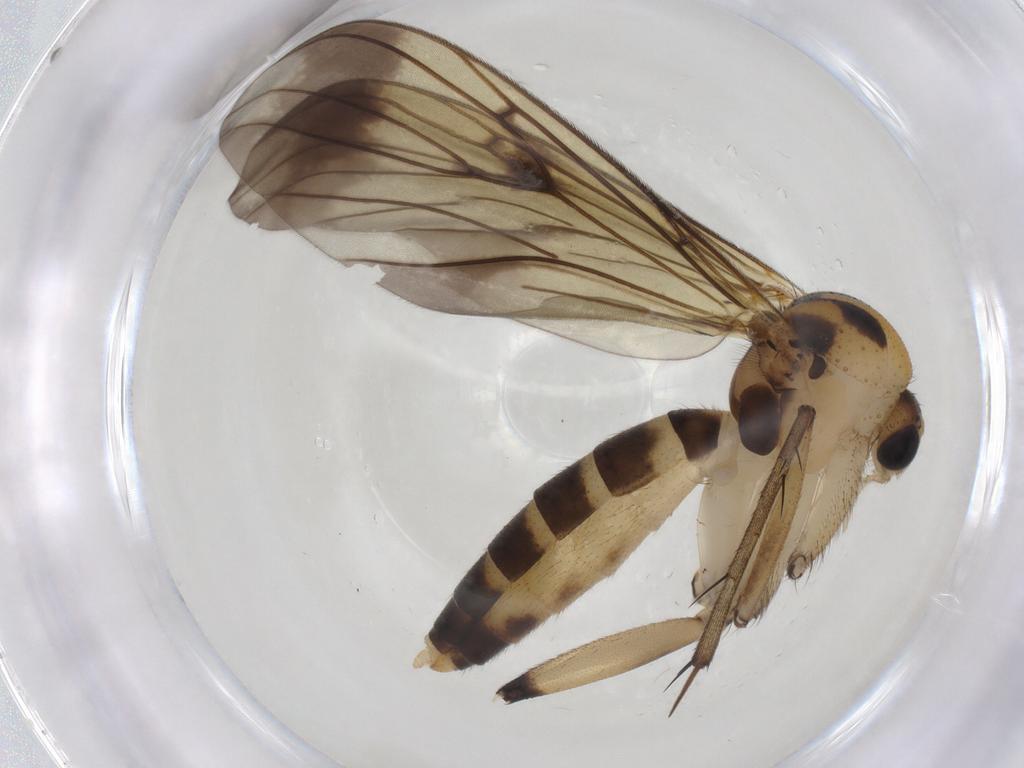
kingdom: Animalia
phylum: Arthropoda
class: Insecta
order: Diptera
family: Mycetophilidae
